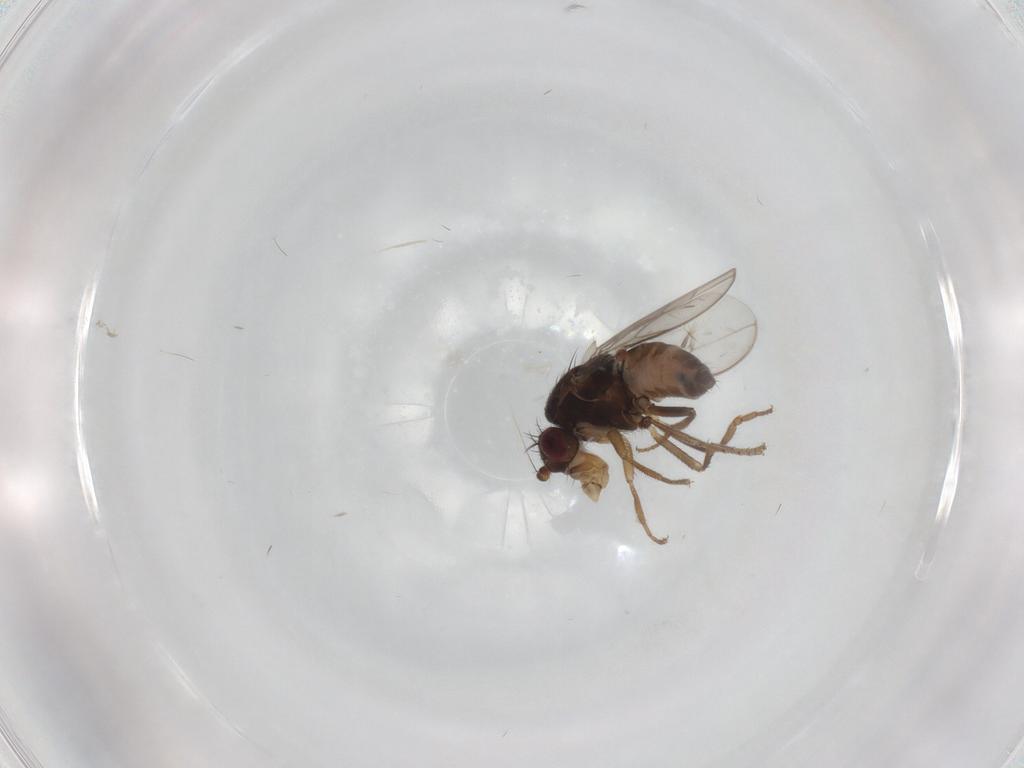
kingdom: Animalia
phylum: Arthropoda
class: Insecta
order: Diptera
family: Sphaeroceridae
